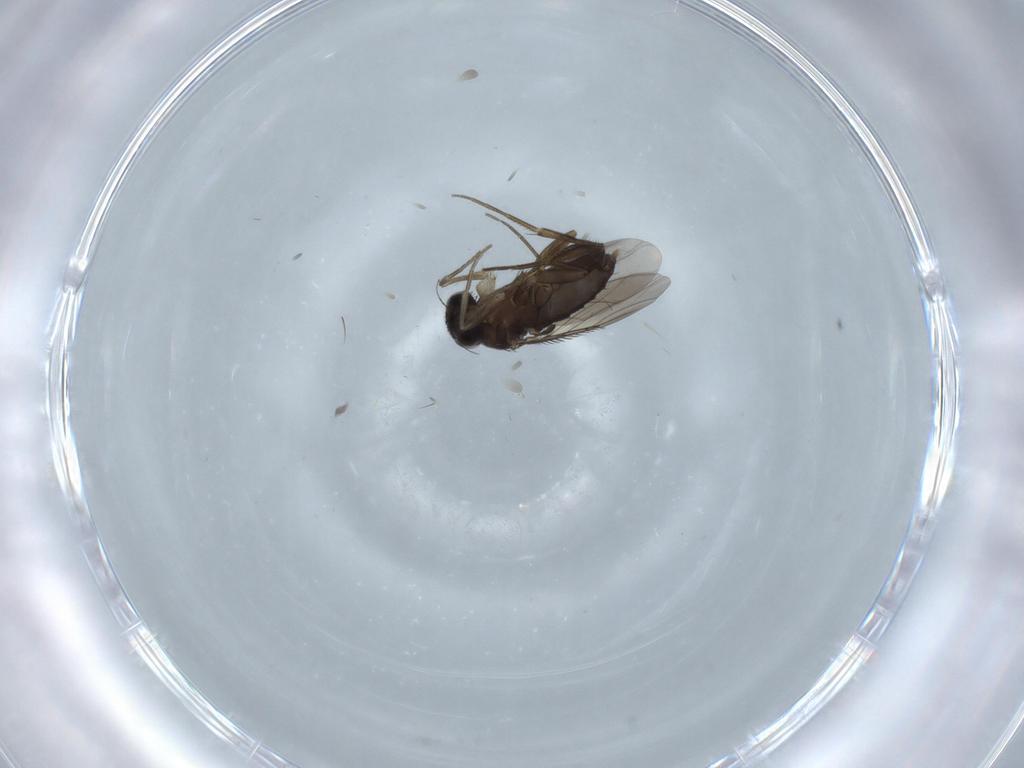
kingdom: Animalia
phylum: Arthropoda
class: Insecta
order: Diptera
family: Phoridae
